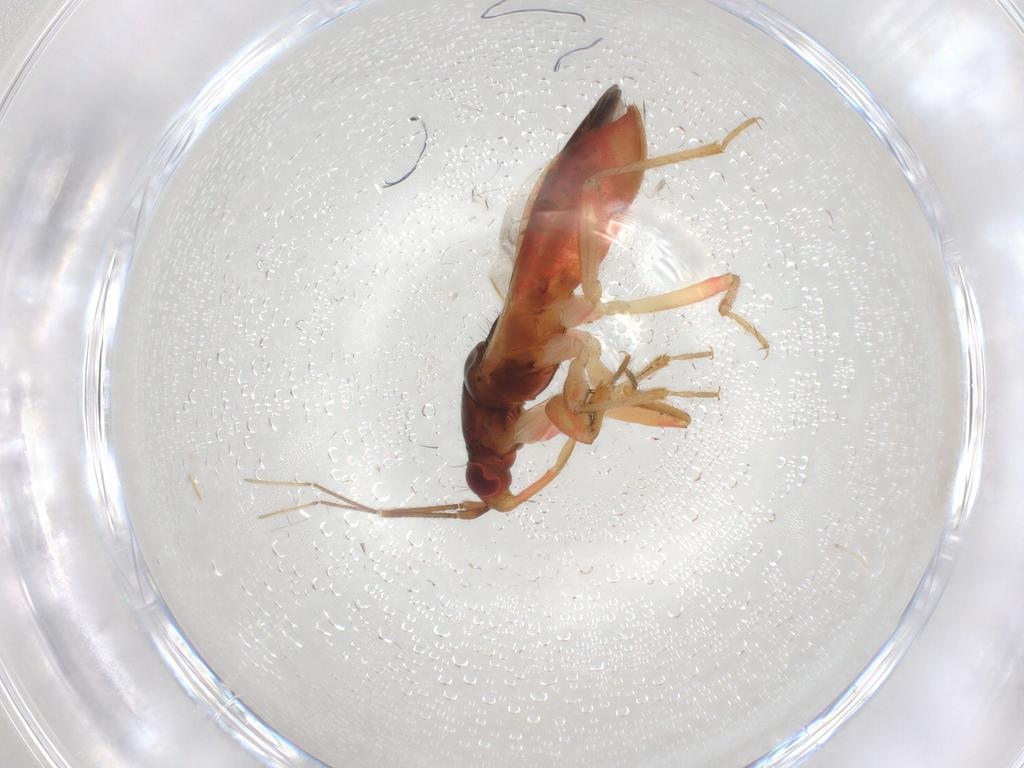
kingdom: Animalia
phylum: Arthropoda
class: Insecta
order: Hemiptera
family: Nabidae
